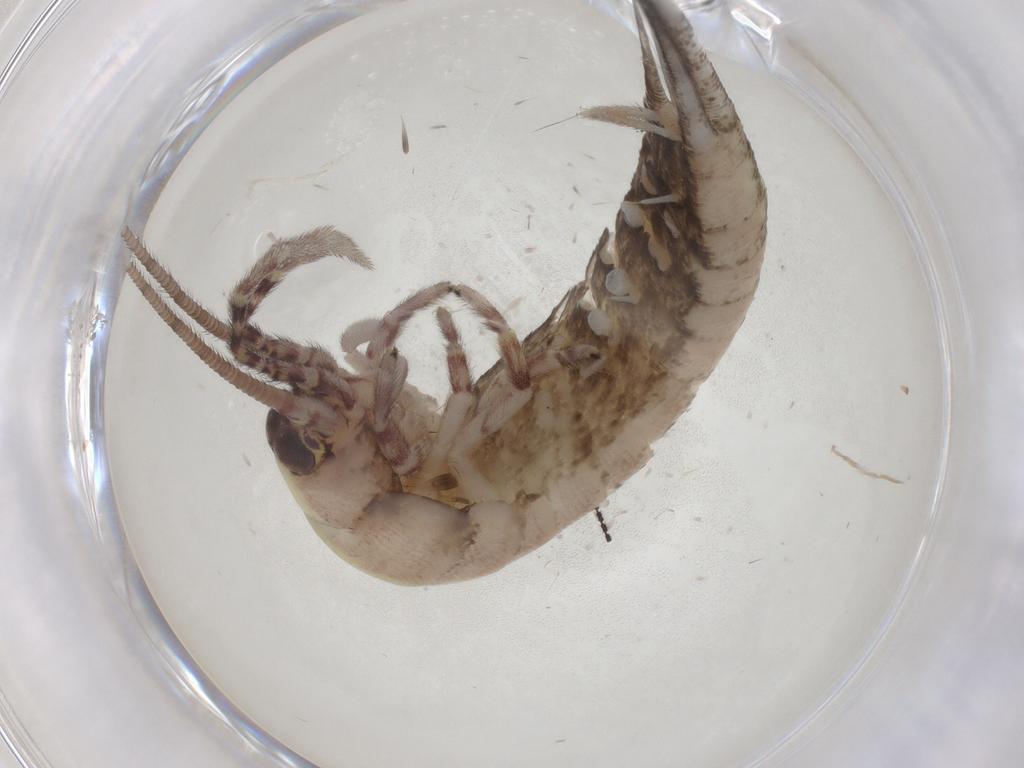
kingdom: Animalia
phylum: Arthropoda
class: Insecta
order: Archaeognatha
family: Machilidae
